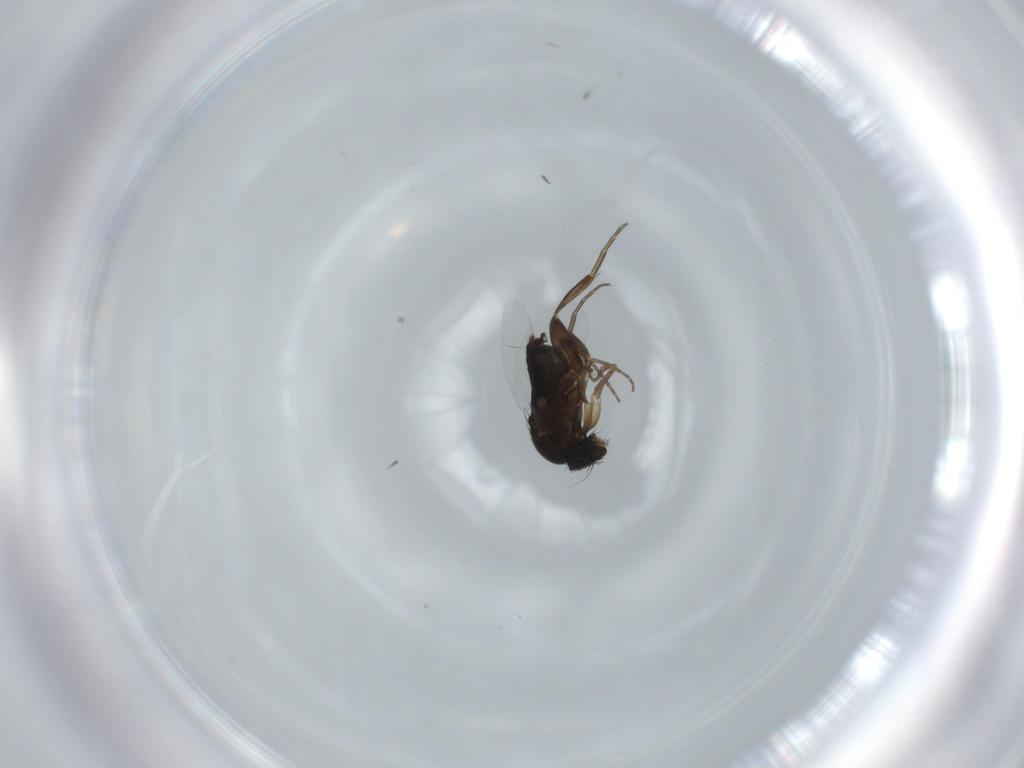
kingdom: Animalia
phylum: Arthropoda
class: Insecta
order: Diptera
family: Phoridae
